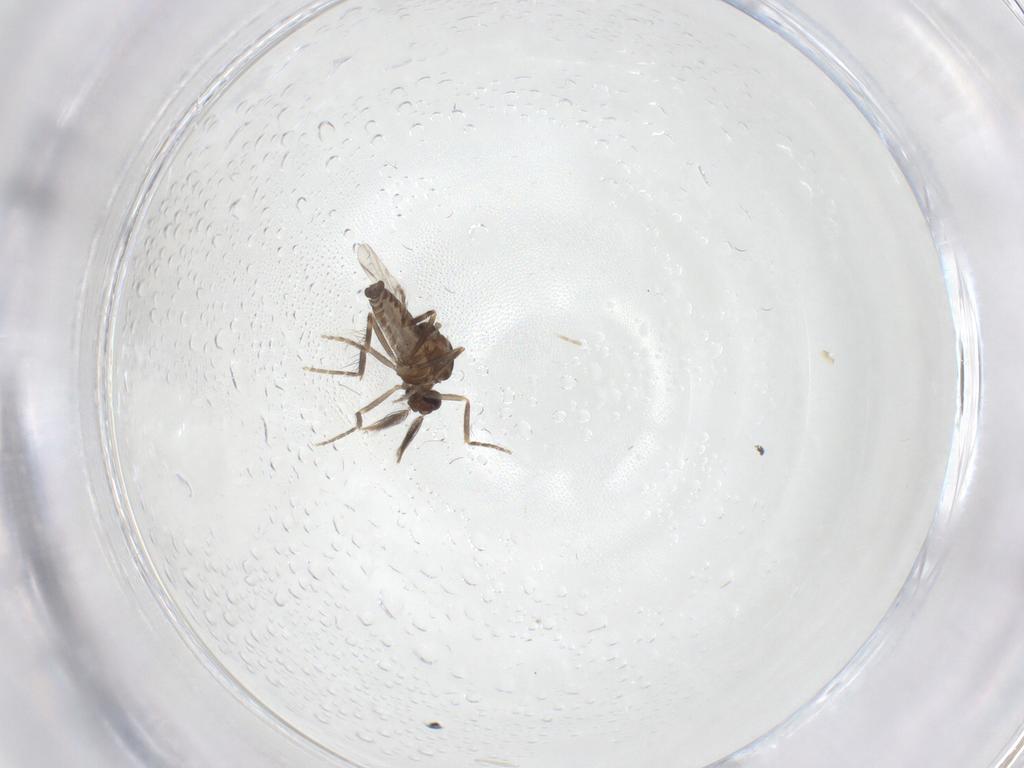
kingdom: Animalia
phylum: Arthropoda
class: Insecta
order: Diptera
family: Ceratopogonidae
